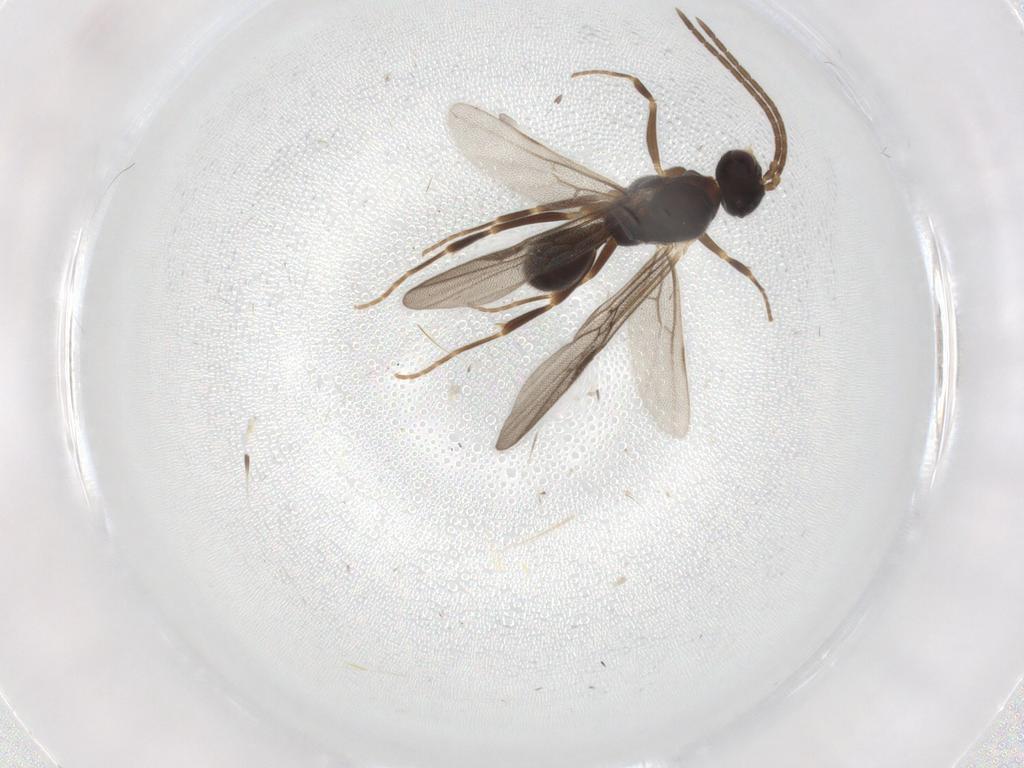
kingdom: Animalia
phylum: Arthropoda
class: Insecta
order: Hymenoptera
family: Formicidae
